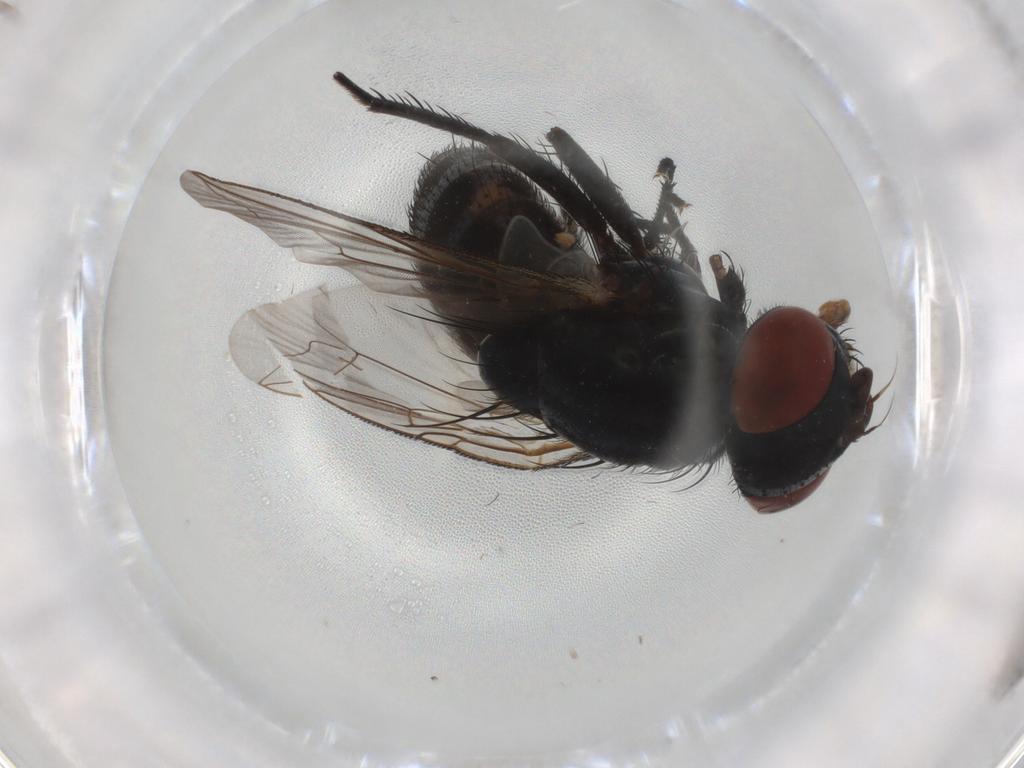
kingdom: Animalia
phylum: Arthropoda
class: Insecta
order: Diptera
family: Sarcophagidae
